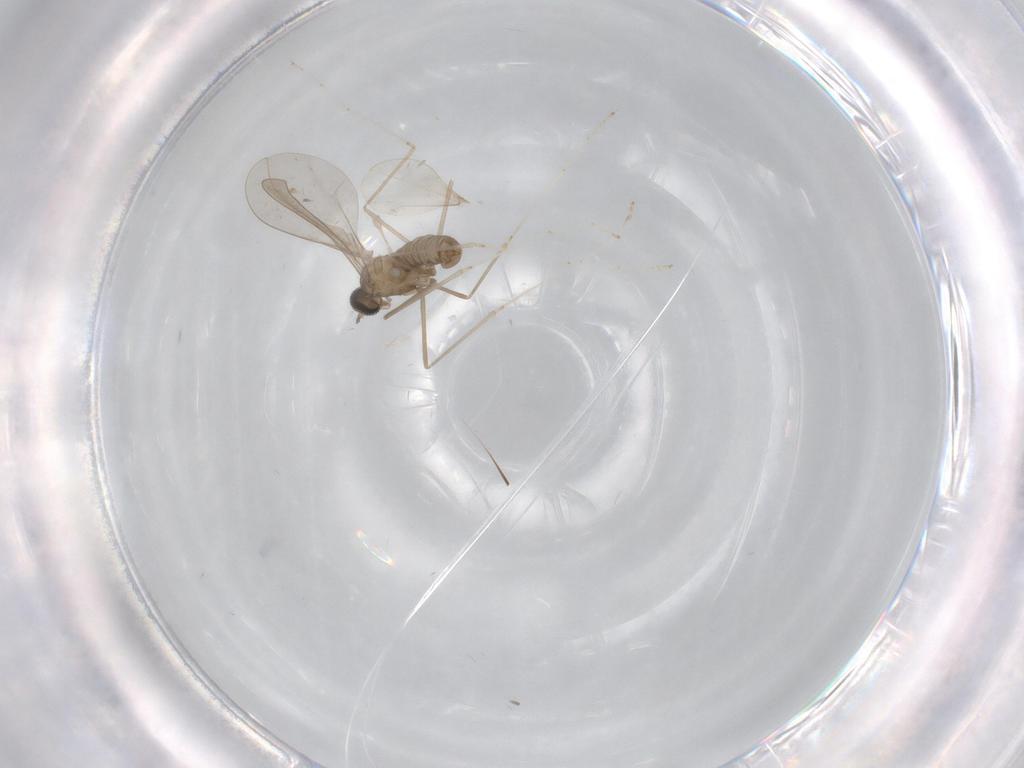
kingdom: Animalia
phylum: Arthropoda
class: Insecta
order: Diptera
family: Cecidomyiidae
